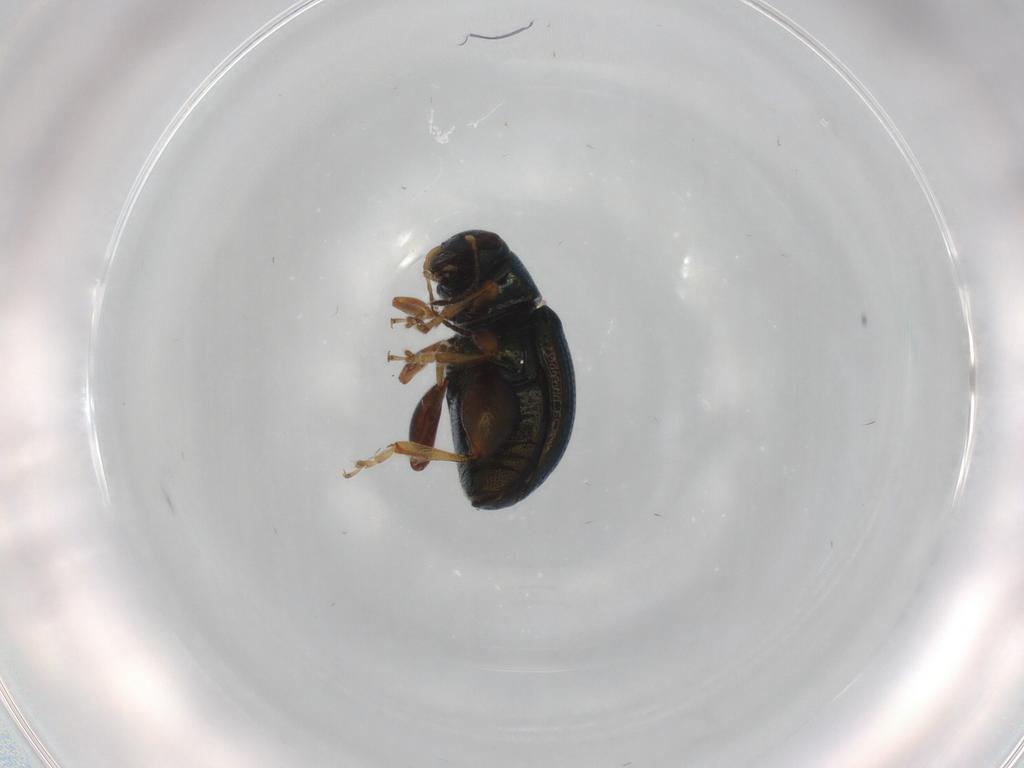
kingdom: Animalia
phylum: Arthropoda
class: Insecta
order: Coleoptera
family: Chrysomelidae
